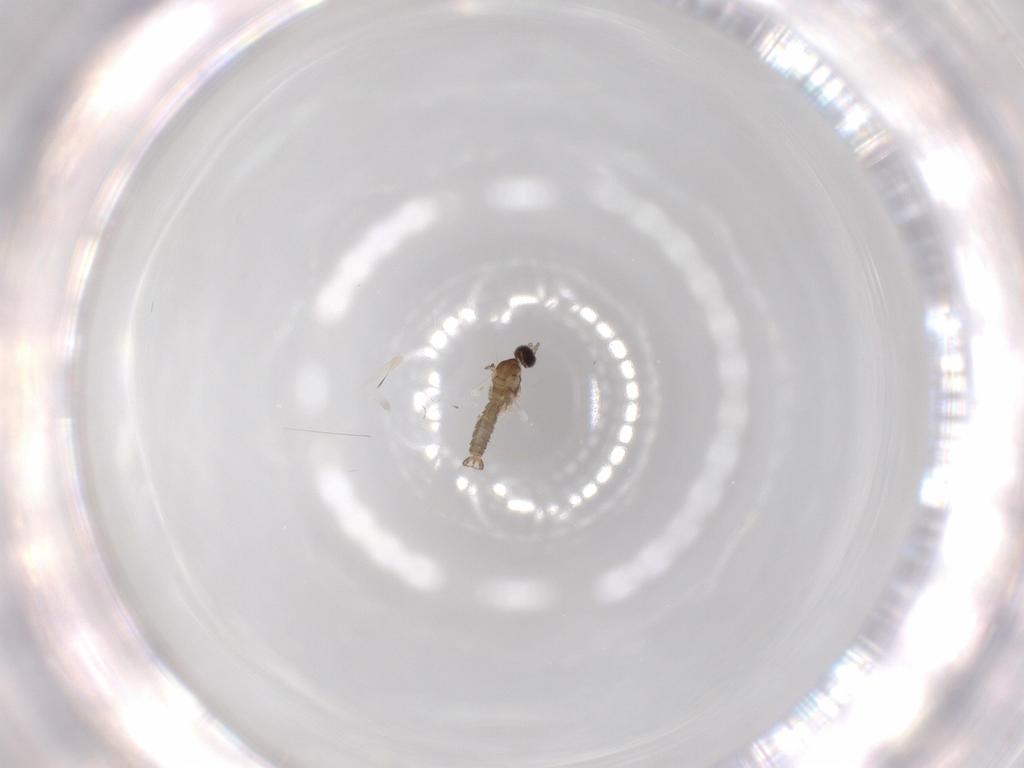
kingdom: Animalia
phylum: Arthropoda
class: Insecta
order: Diptera
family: Cecidomyiidae
